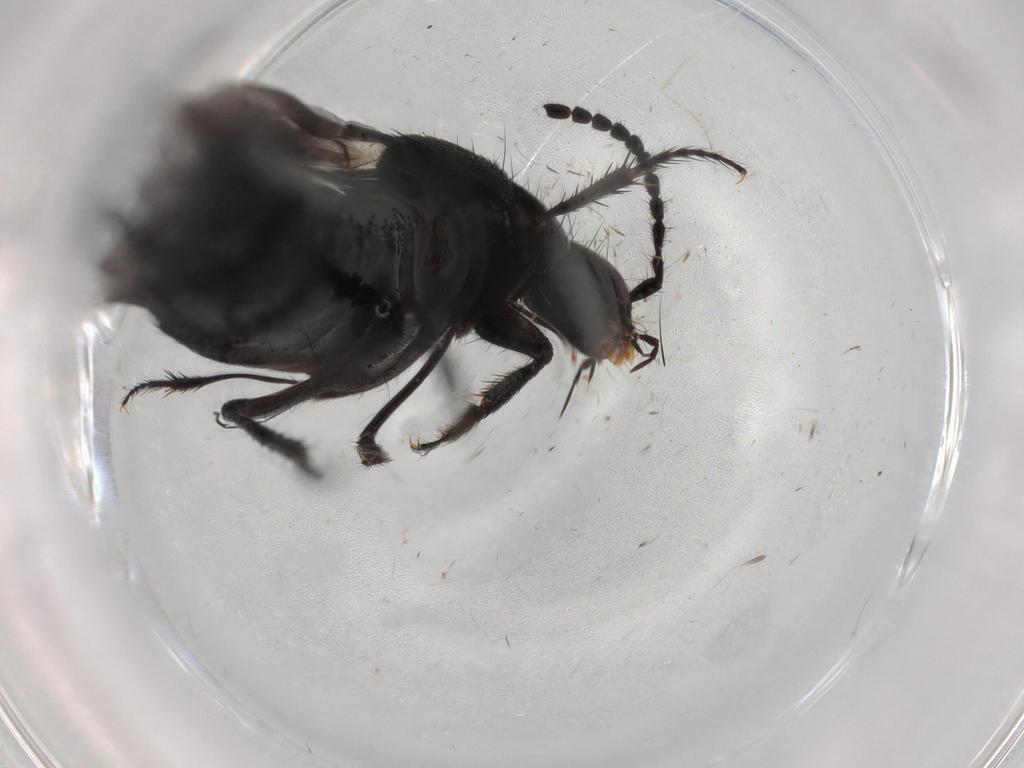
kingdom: Animalia
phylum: Arthropoda
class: Insecta
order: Coleoptera
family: Staphylinidae
